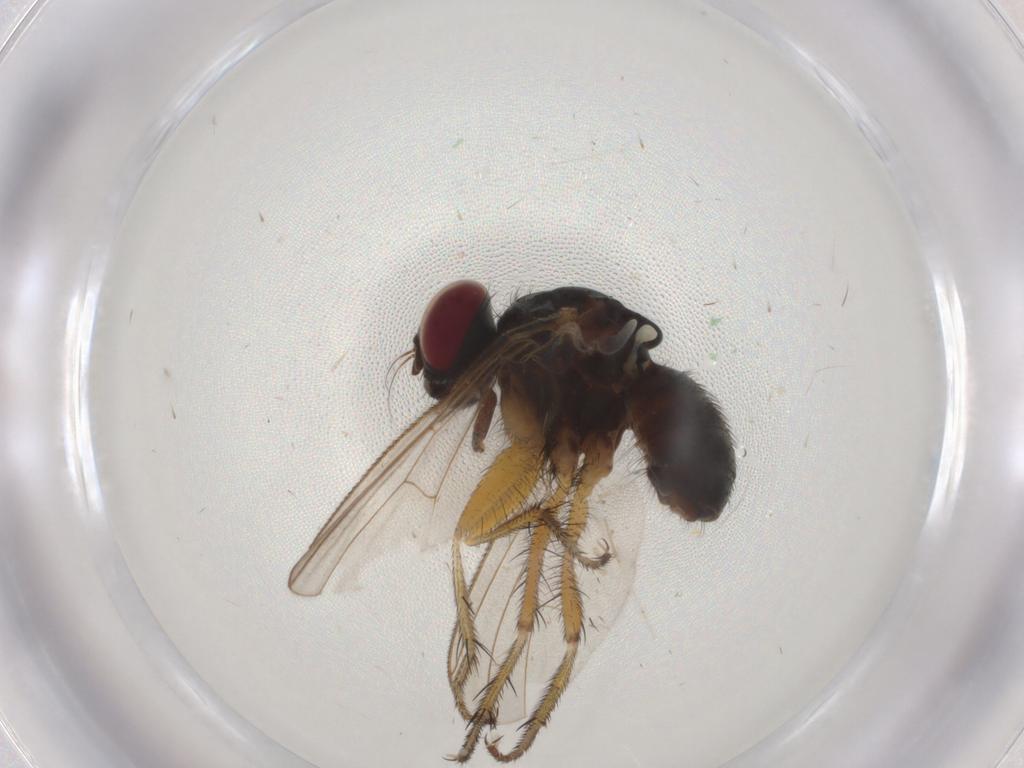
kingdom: Animalia
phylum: Arthropoda
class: Insecta
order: Diptera
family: Muscidae
